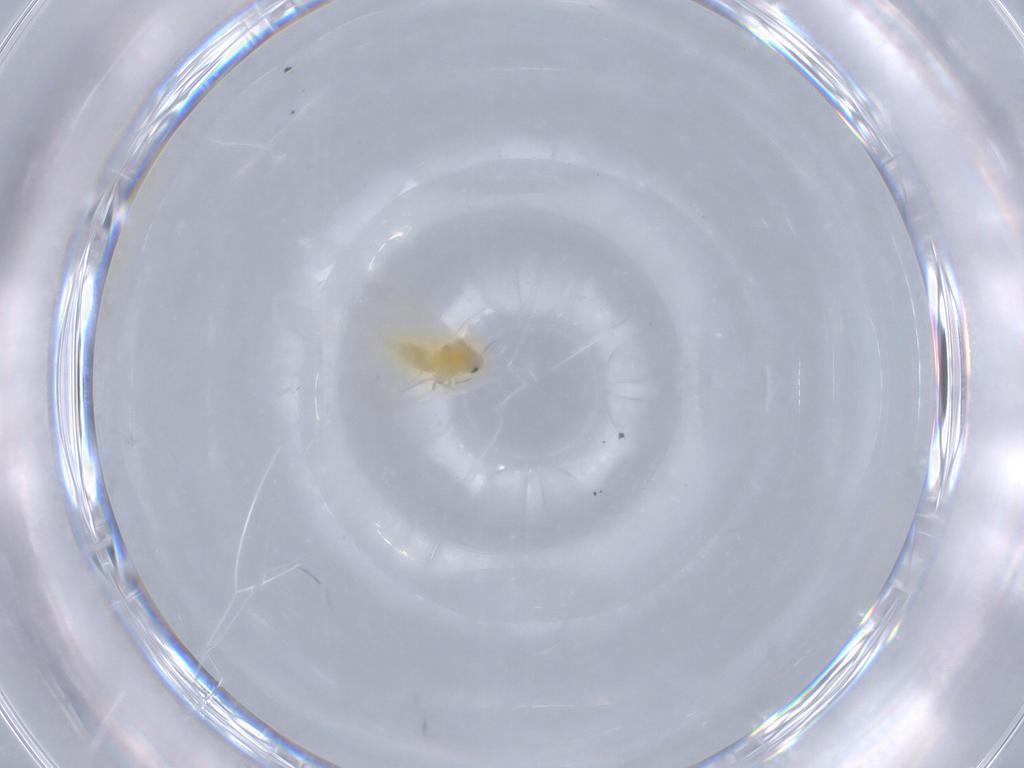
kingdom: Animalia
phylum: Arthropoda
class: Insecta
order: Hemiptera
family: Aleyrodidae
